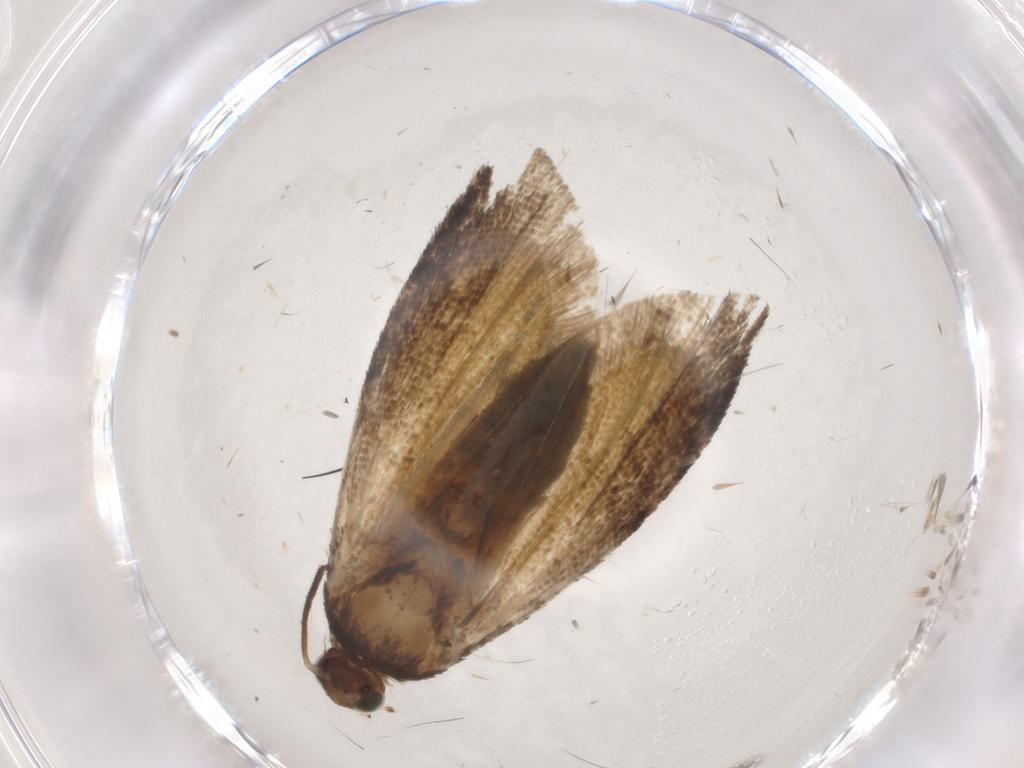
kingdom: Animalia
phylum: Arthropoda
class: Insecta
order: Lepidoptera
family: Tortricidae
